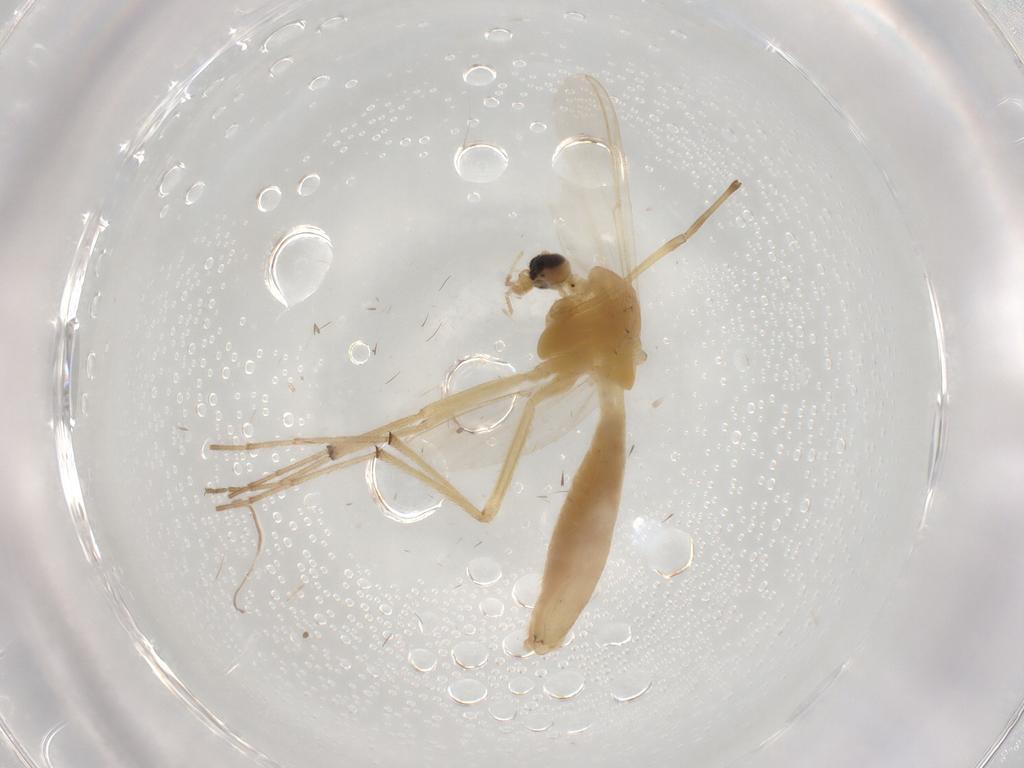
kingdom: Animalia
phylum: Arthropoda
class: Insecta
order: Diptera
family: Chironomidae
